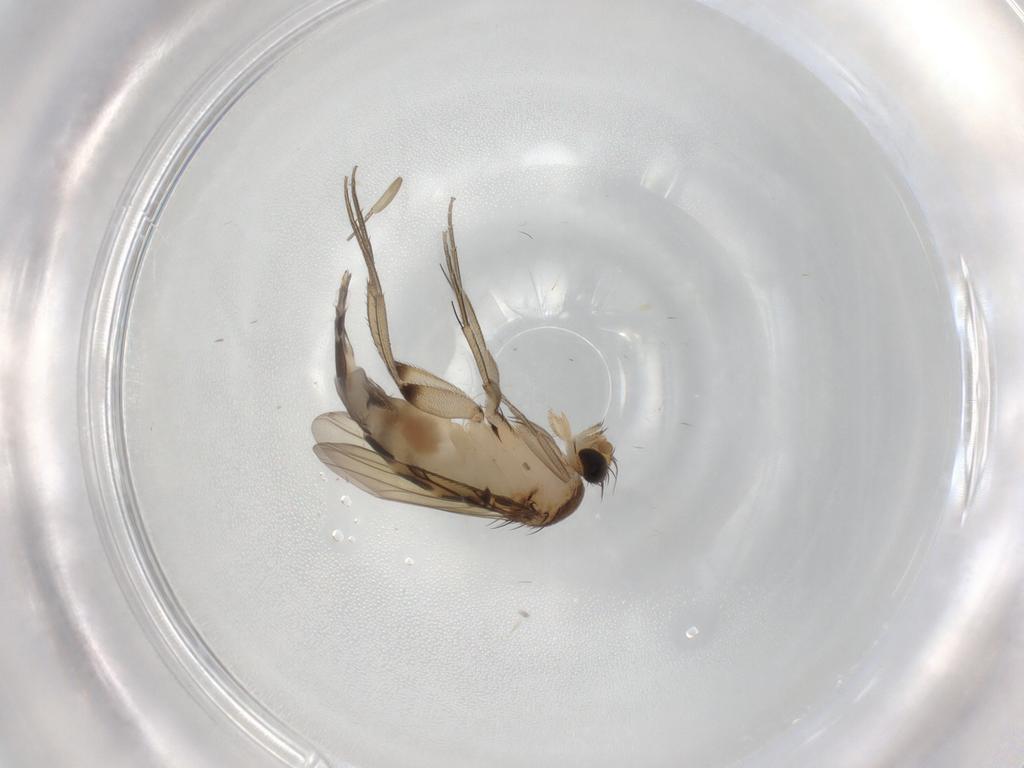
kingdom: Animalia
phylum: Arthropoda
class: Insecta
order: Diptera
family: Phoridae
